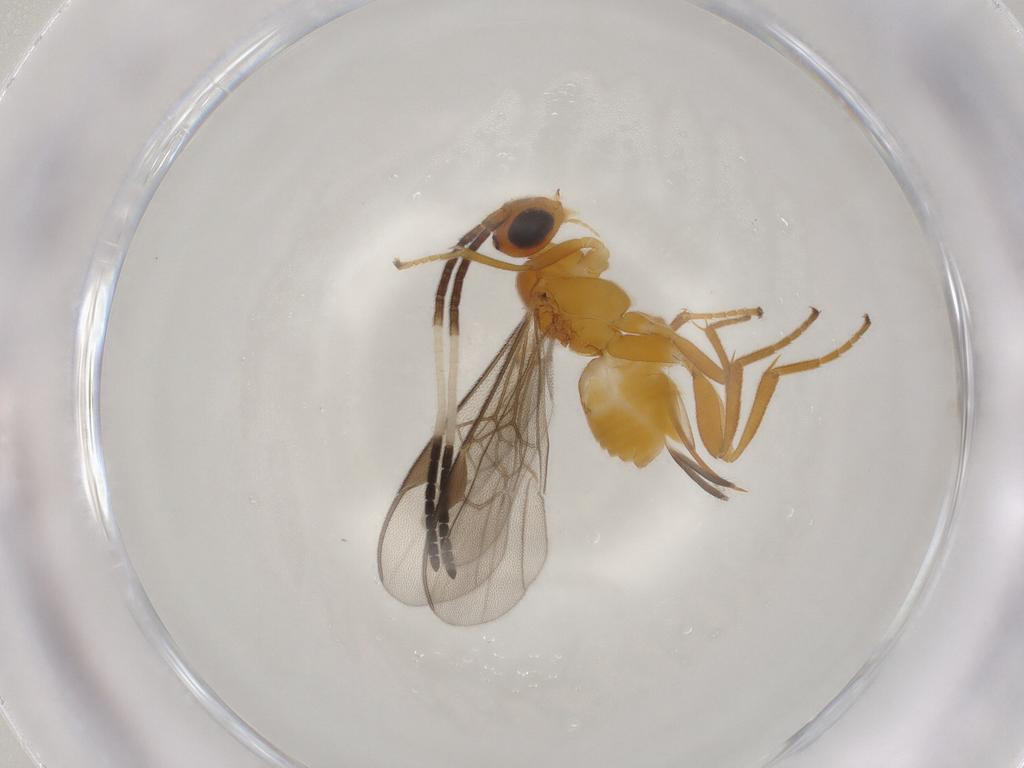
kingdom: Animalia
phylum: Arthropoda
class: Insecta
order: Hymenoptera
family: Braconidae
